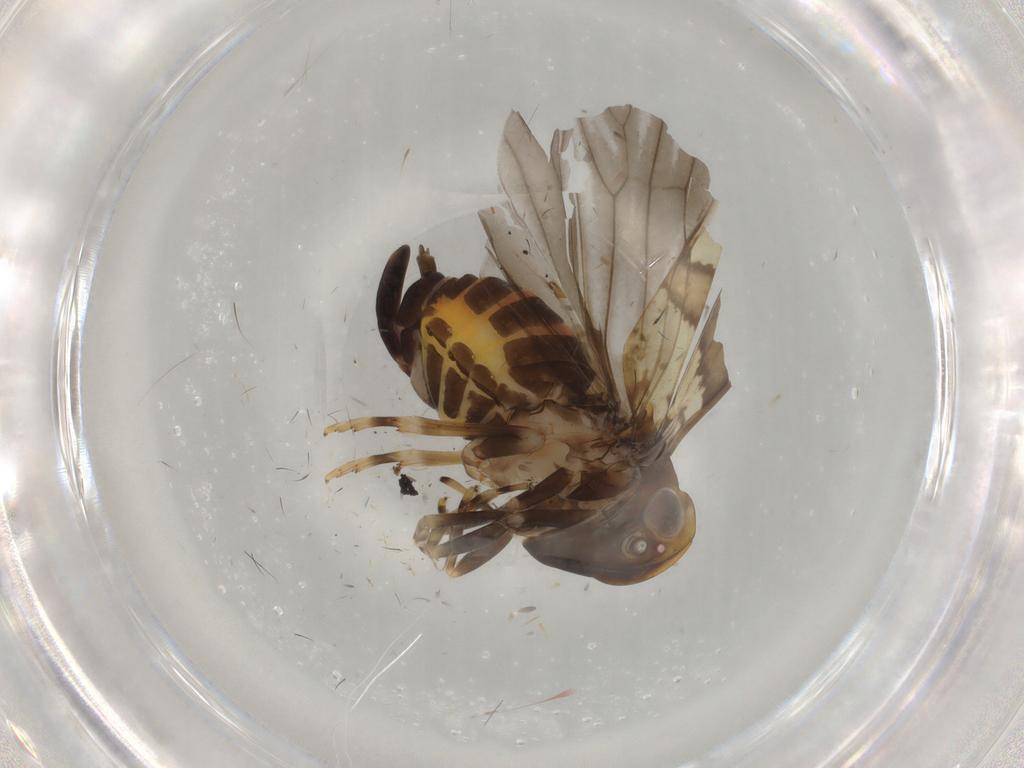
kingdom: Animalia
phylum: Arthropoda
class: Insecta
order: Hemiptera
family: Cixiidae
